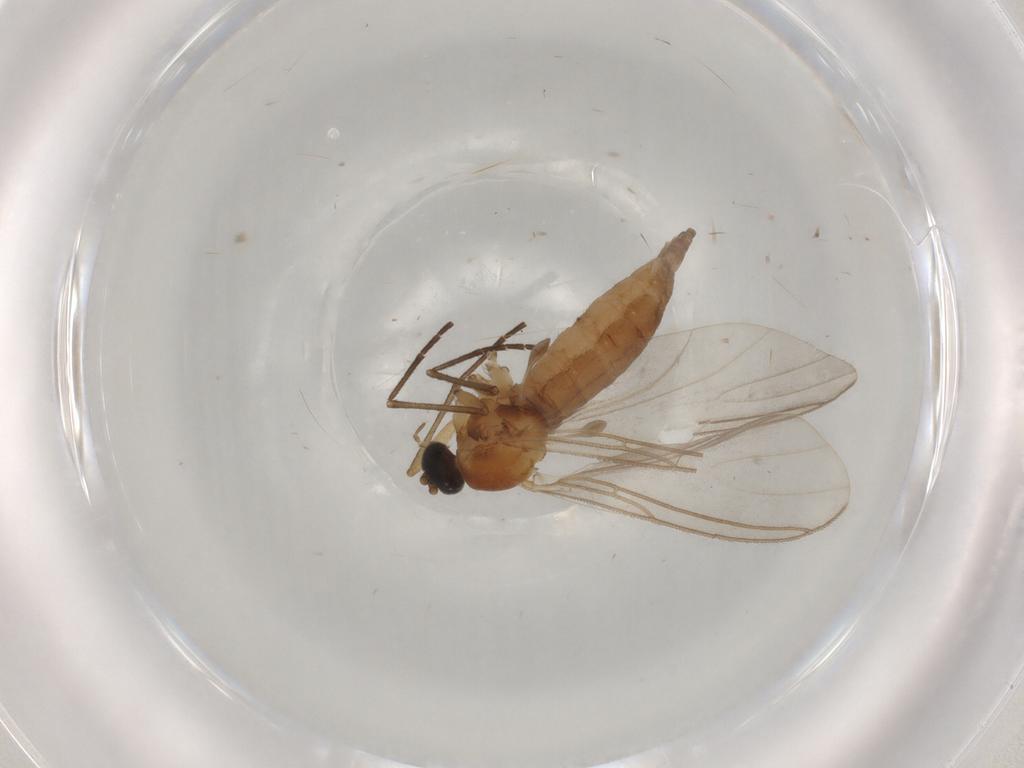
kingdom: Animalia
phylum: Arthropoda
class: Insecta
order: Diptera
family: Sciaridae
